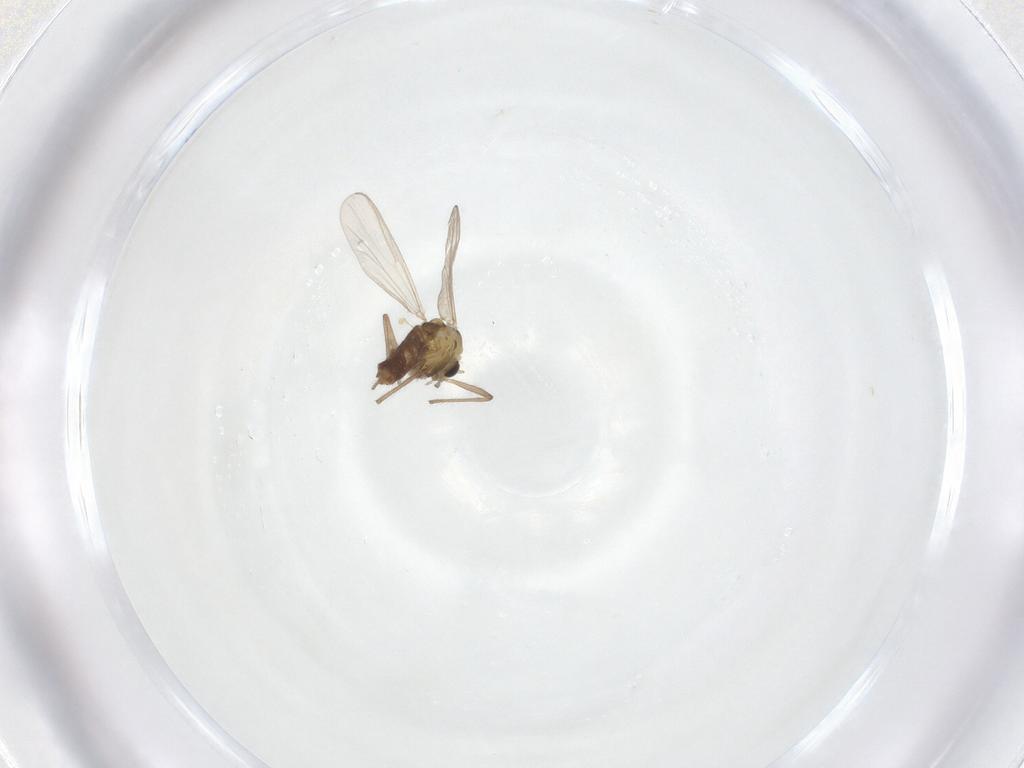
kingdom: Animalia
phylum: Arthropoda
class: Insecta
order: Diptera
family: Chironomidae
